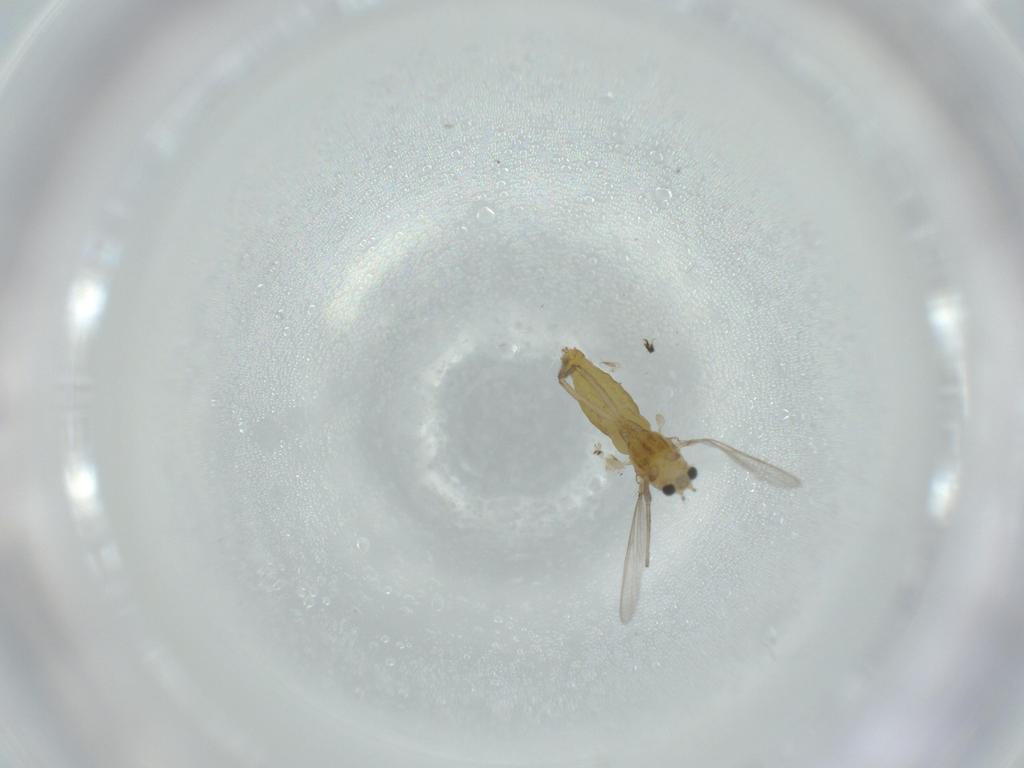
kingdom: Animalia
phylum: Arthropoda
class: Insecta
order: Diptera
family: Chironomidae
